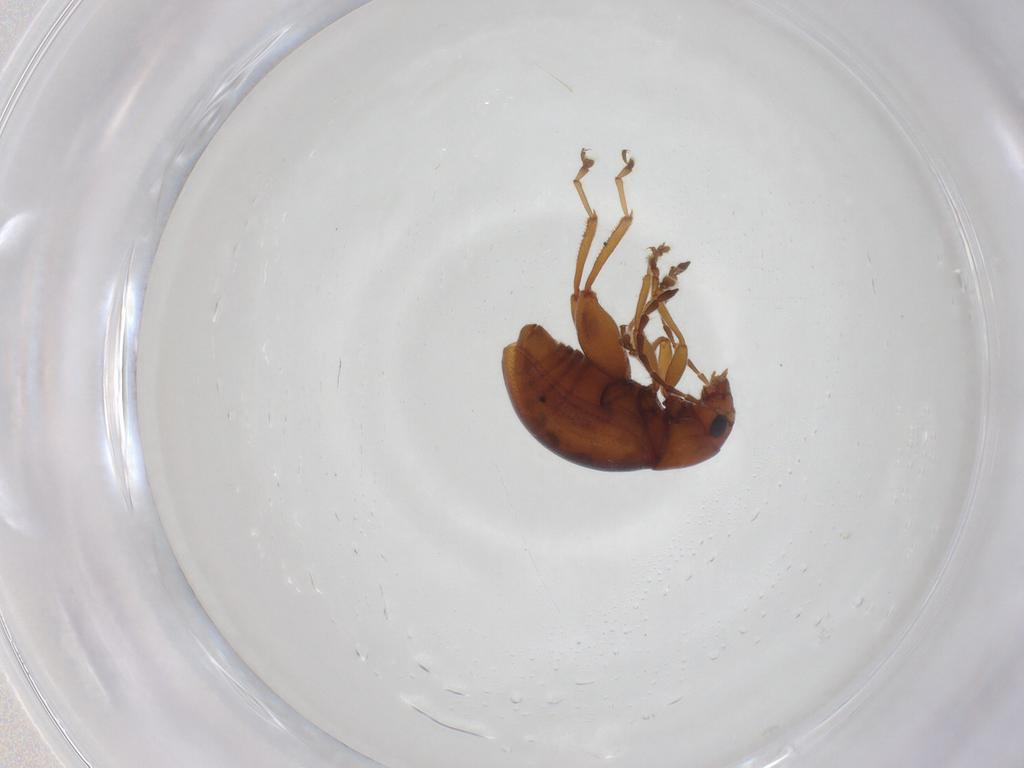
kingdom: Animalia
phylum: Arthropoda
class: Insecta
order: Coleoptera
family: Chrysomelidae
